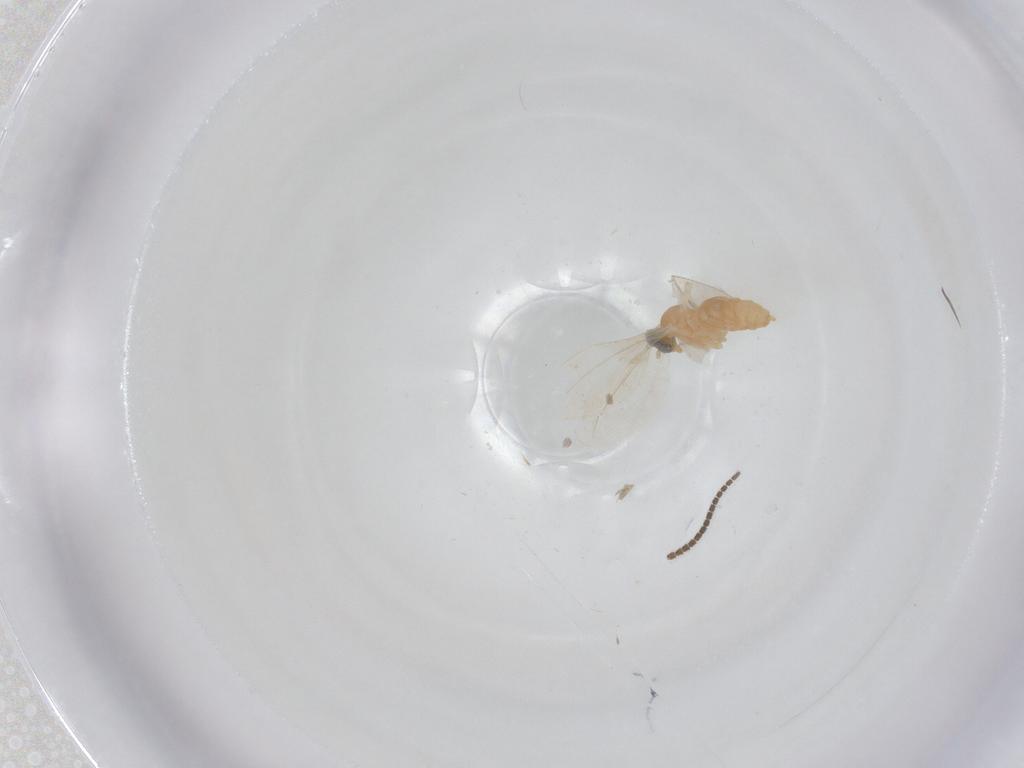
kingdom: Animalia
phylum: Arthropoda
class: Insecta
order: Diptera
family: Cecidomyiidae
